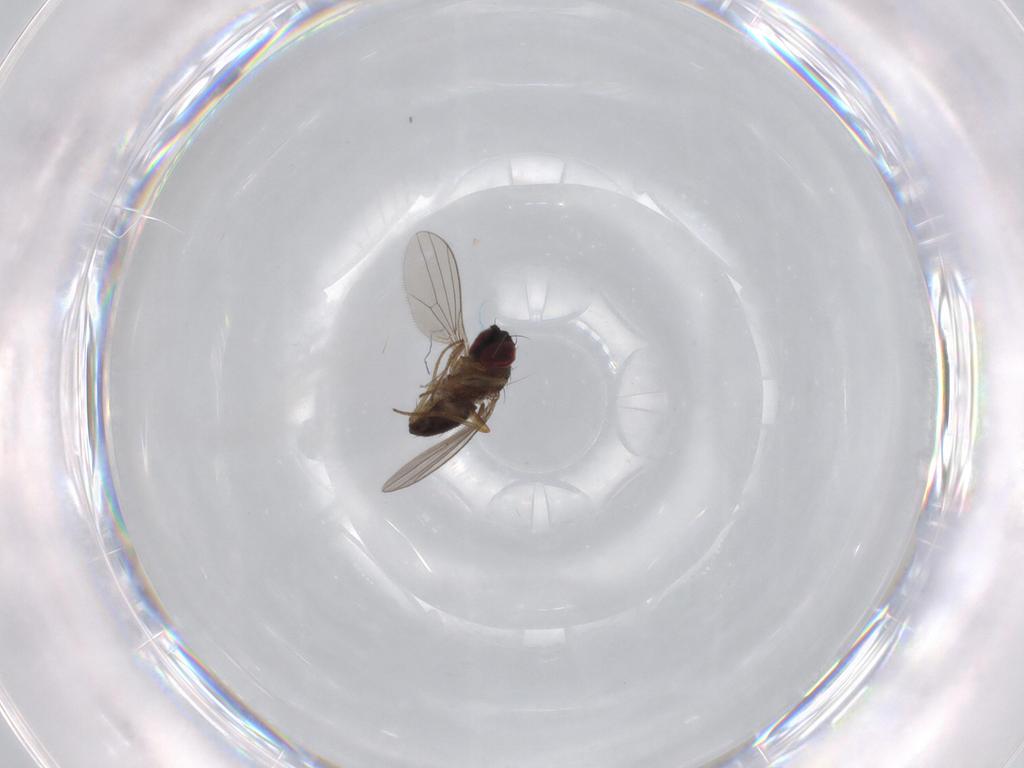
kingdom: Animalia
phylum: Arthropoda
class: Insecta
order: Diptera
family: Dolichopodidae
